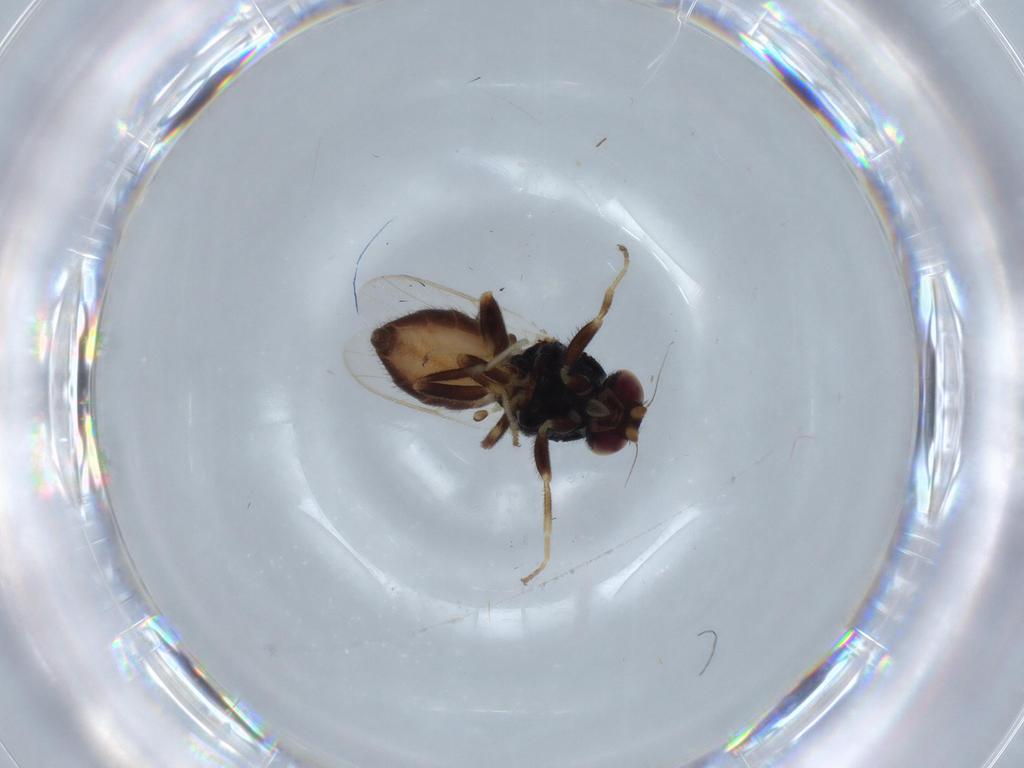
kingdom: Animalia
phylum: Arthropoda
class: Insecta
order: Diptera
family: Chloropidae
